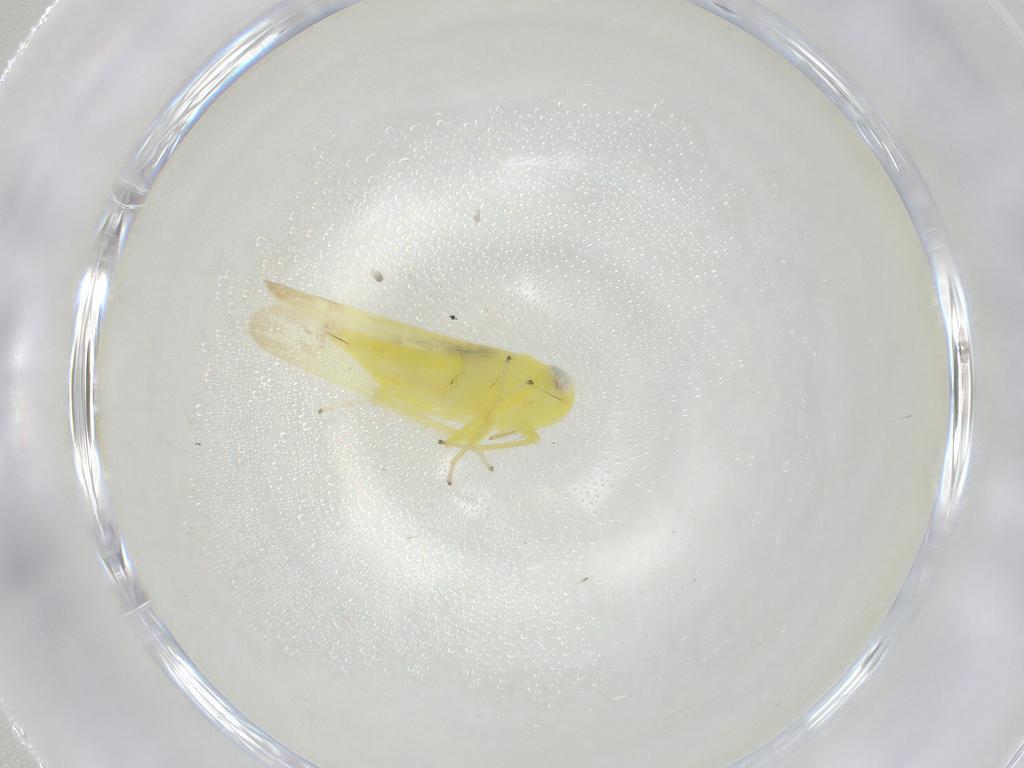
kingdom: Animalia
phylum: Arthropoda
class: Insecta
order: Hemiptera
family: Cicadellidae
